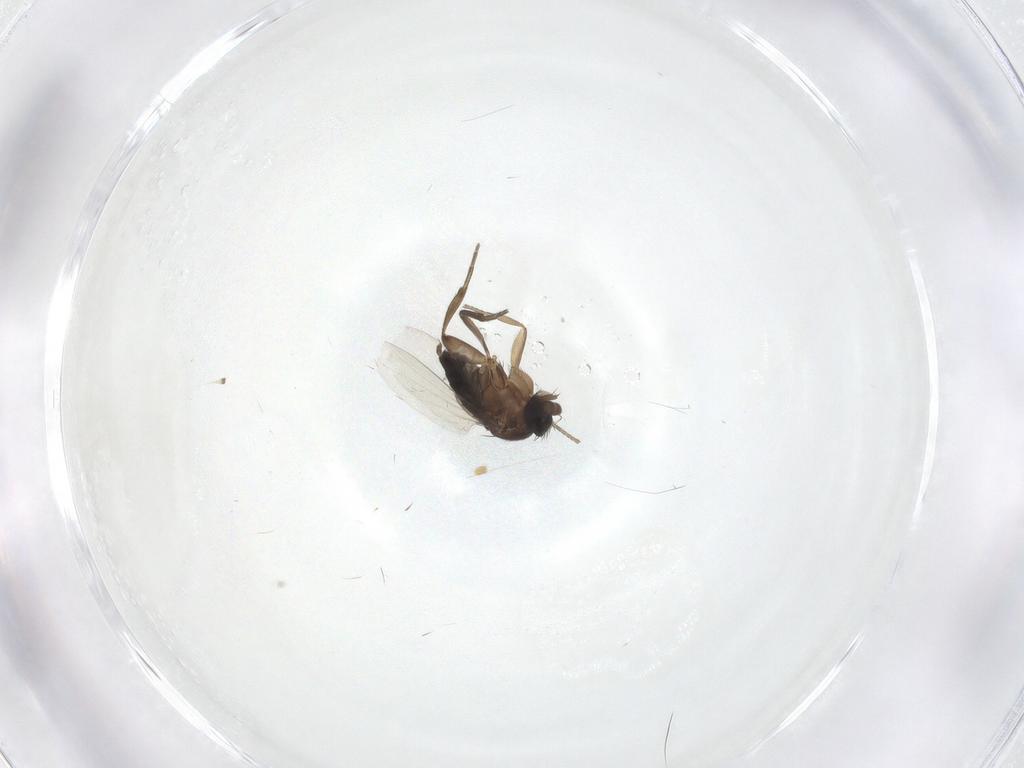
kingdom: Animalia
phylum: Arthropoda
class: Insecta
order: Diptera
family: Phoridae
